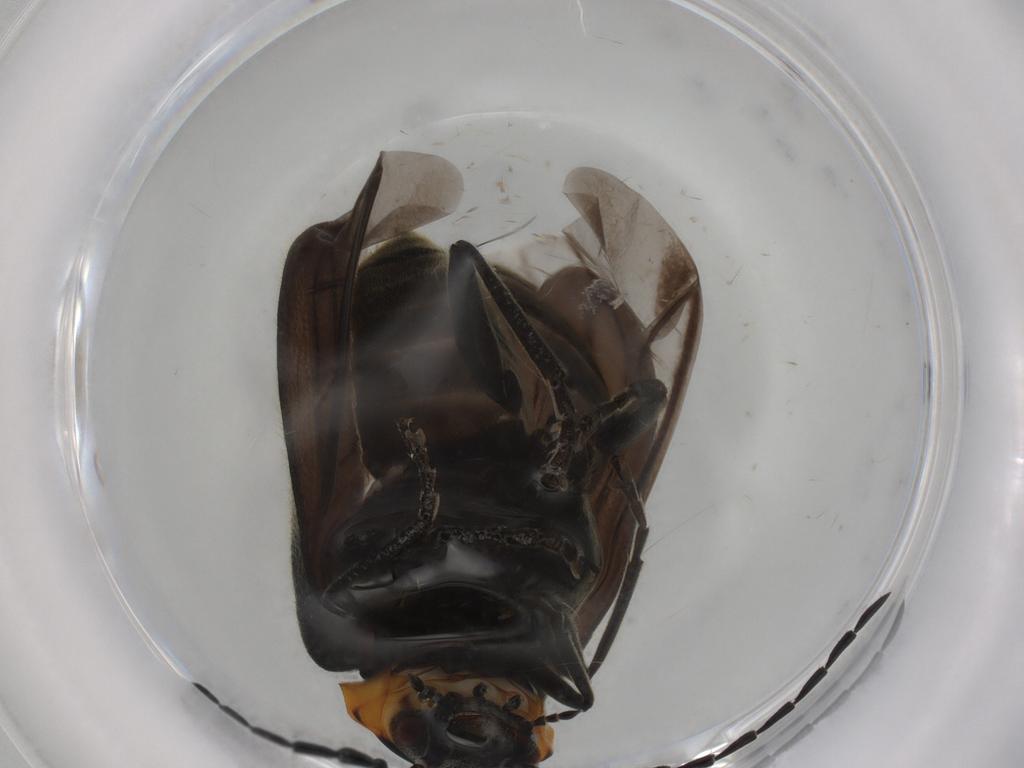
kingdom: Animalia
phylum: Arthropoda
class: Insecta
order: Coleoptera
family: Cantharidae
